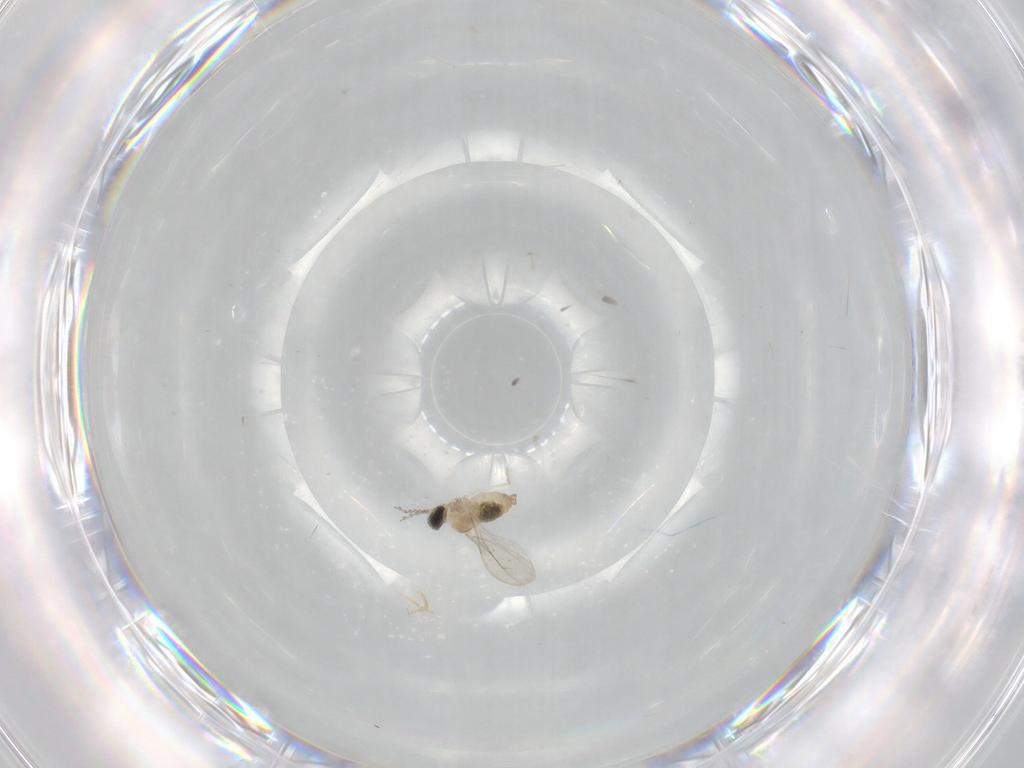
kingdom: Animalia
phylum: Arthropoda
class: Insecta
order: Diptera
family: Cecidomyiidae
